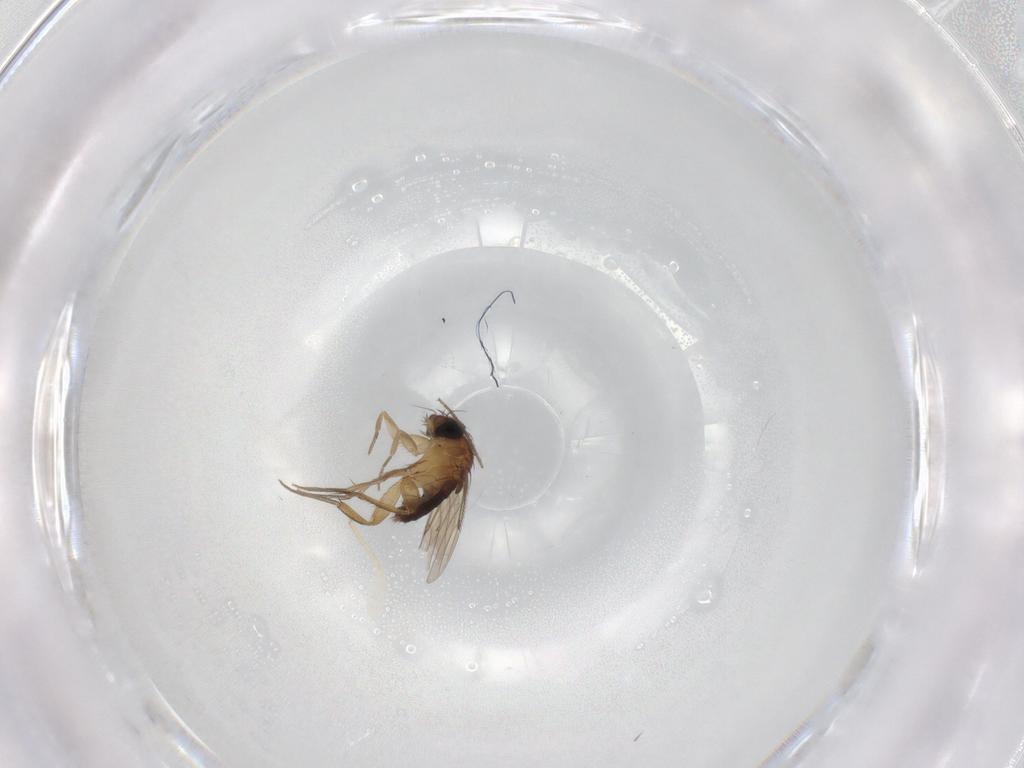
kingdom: Animalia
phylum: Arthropoda
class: Insecta
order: Diptera
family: Phoridae
